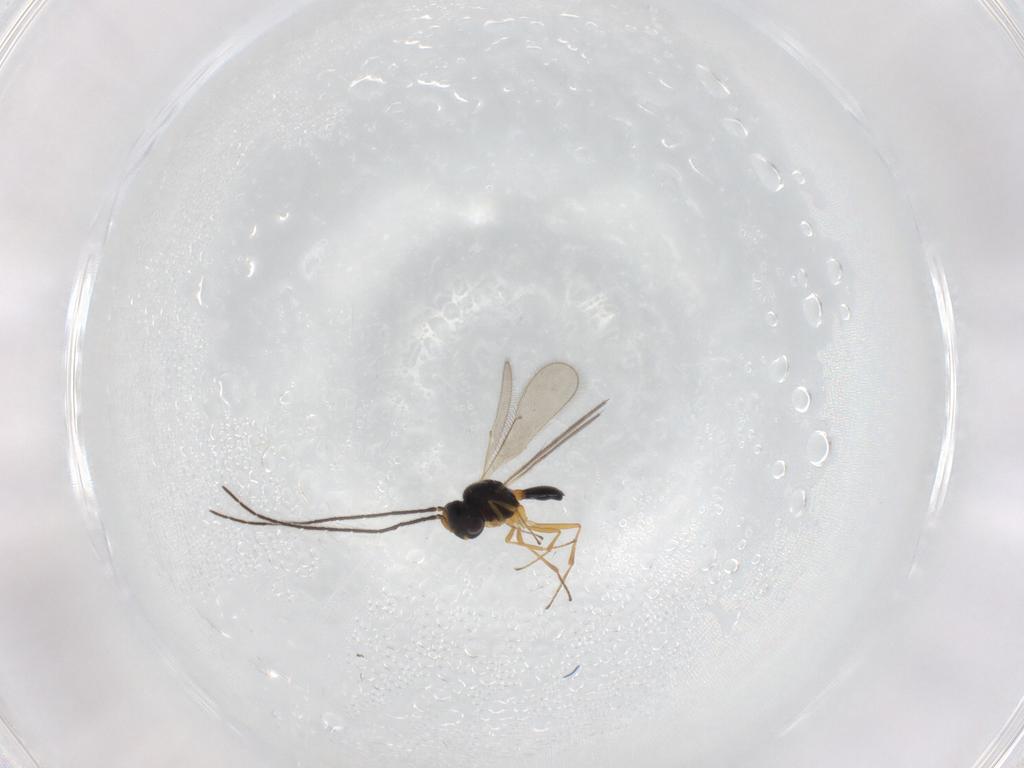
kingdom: Animalia
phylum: Arthropoda
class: Insecta
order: Hymenoptera
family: Scelionidae
